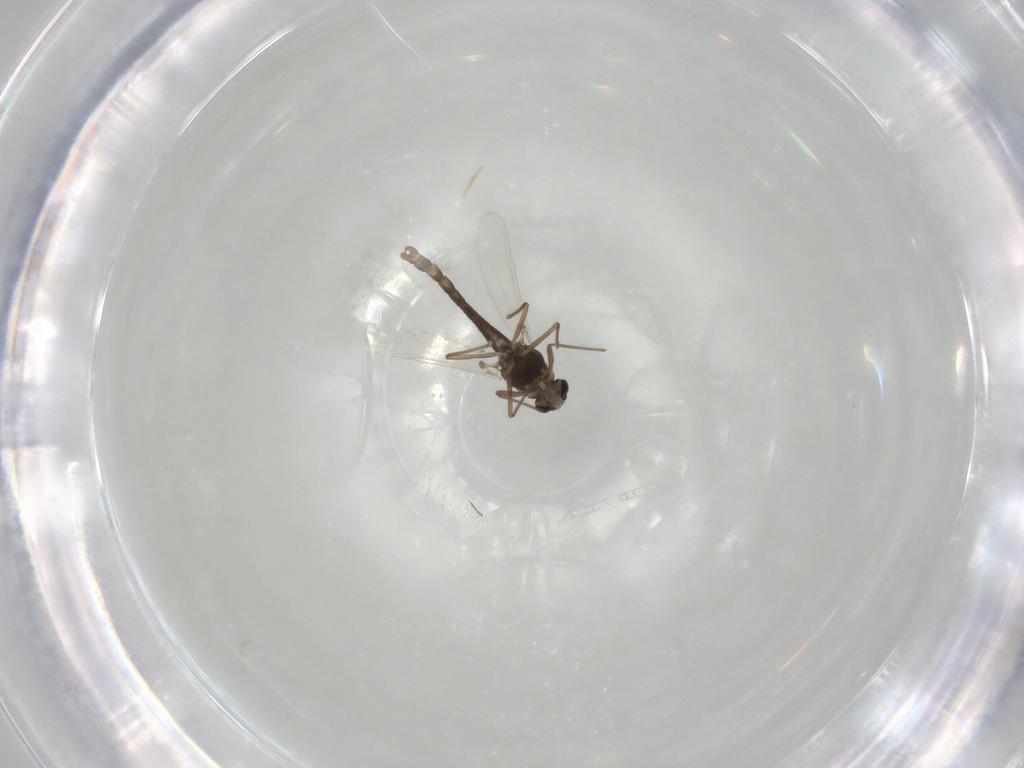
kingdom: Animalia
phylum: Arthropoda
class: Insecta
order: Diptera
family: Chironomidae
